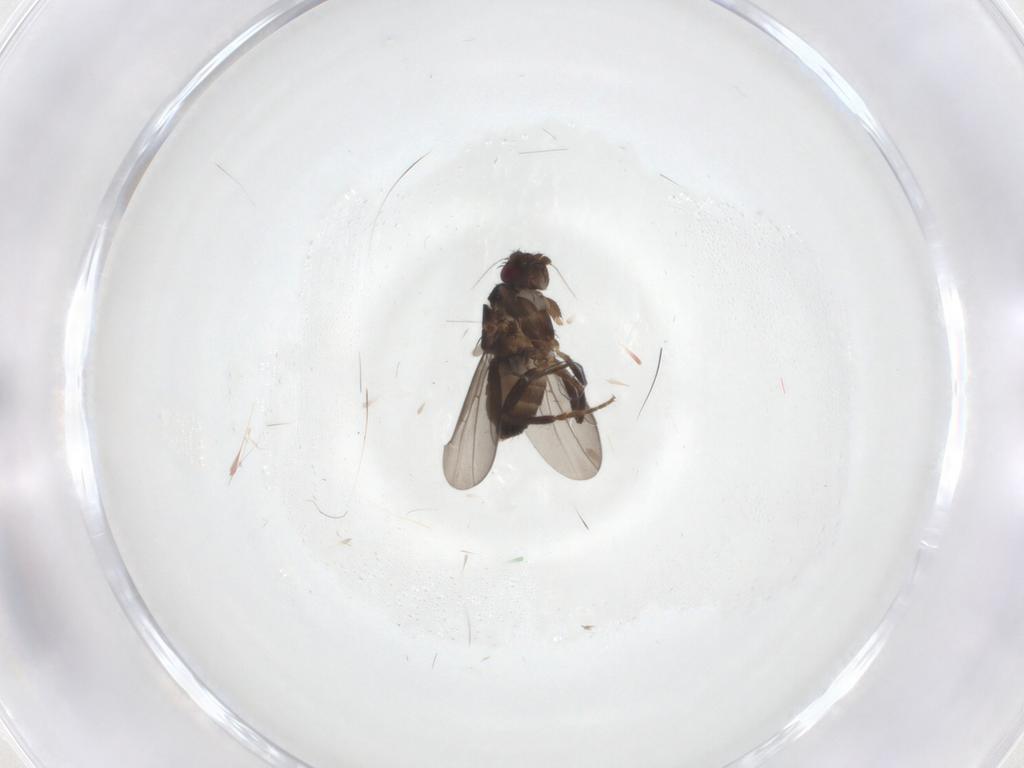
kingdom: Animalia
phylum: Arthropoda
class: Insecta
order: Diptera
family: Sphaeroceridae
